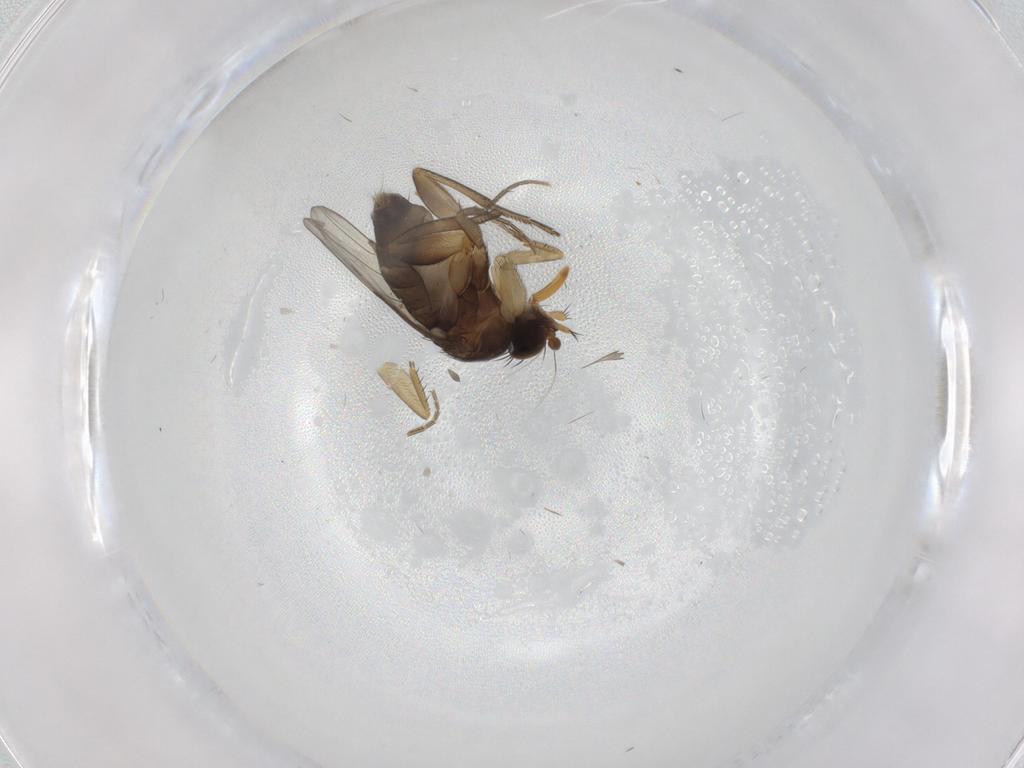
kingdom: Animalia
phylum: Arthropoda
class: Insecta
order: Diptera
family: Phoridae
